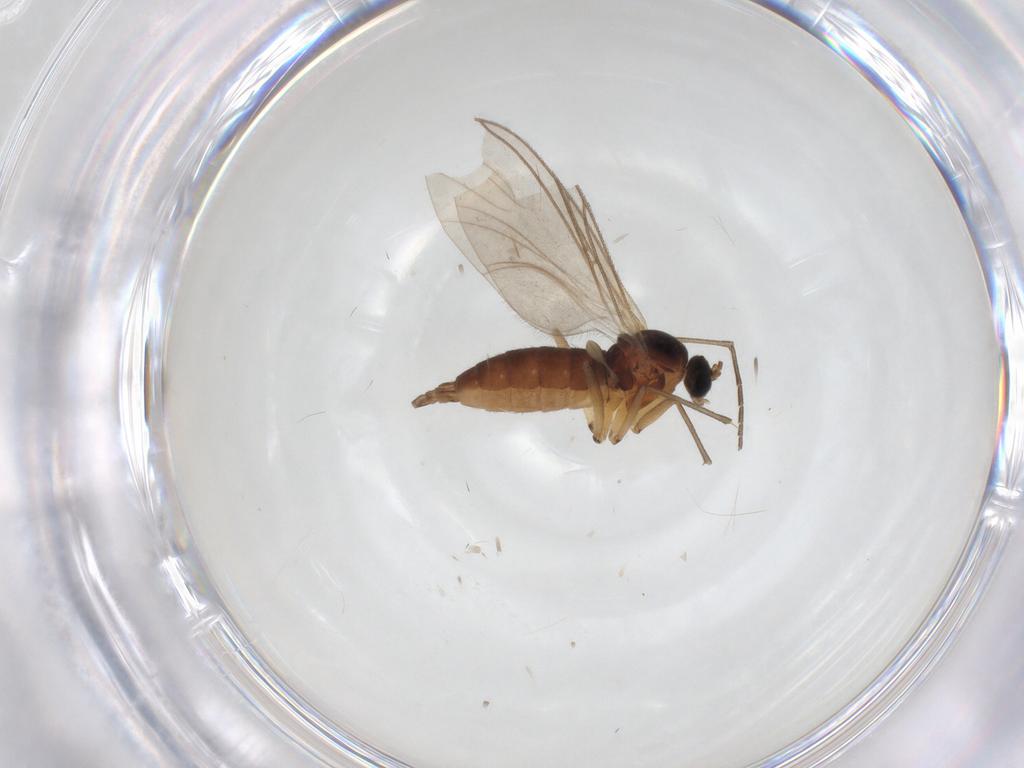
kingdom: Animalia
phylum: Arthropoda
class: Insecta
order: Diptera
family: Sciaridae
